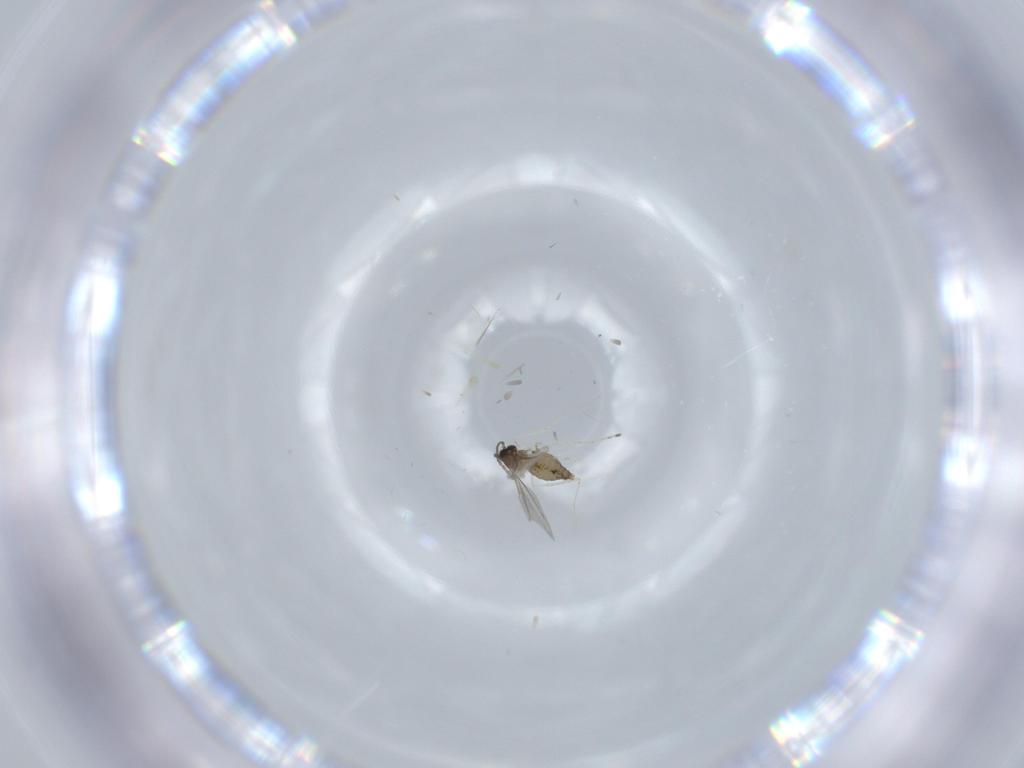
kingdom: Animalia
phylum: Arthropoda
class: Insecta
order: Diptera
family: Cecidomyiidae
